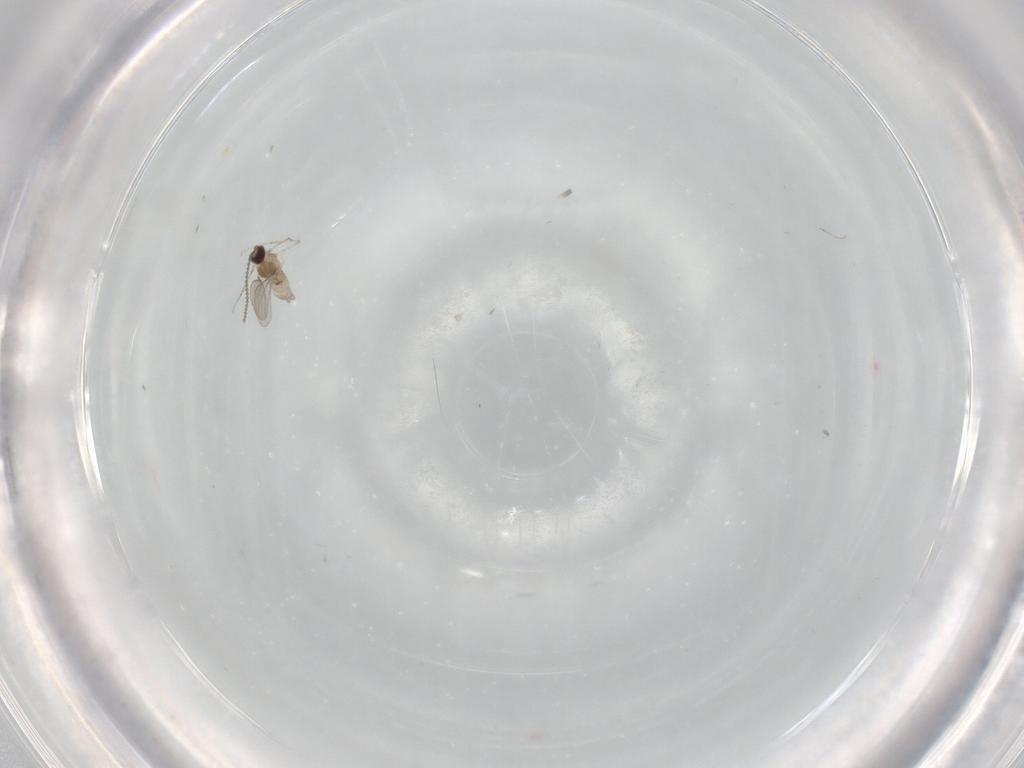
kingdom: Animalia
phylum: Arthropoda
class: Insecta
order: Diptera
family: Cecidomyiidae
